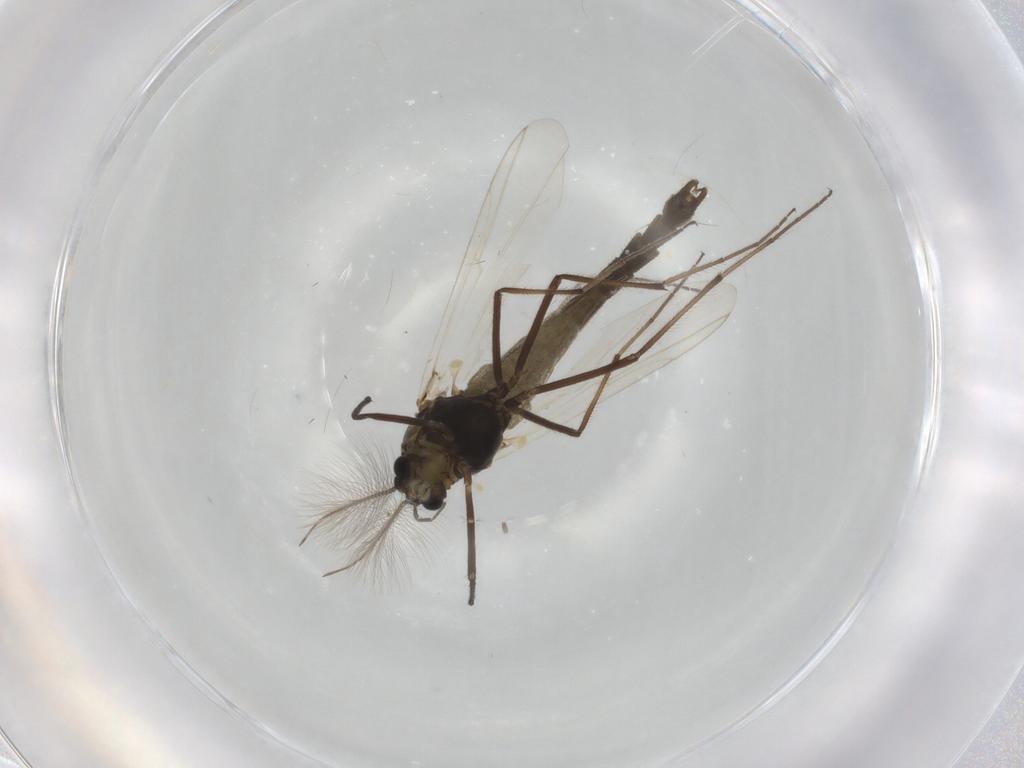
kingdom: Animalia
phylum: Arthropoda
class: Insecta
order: Diptera
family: Chironomidae
